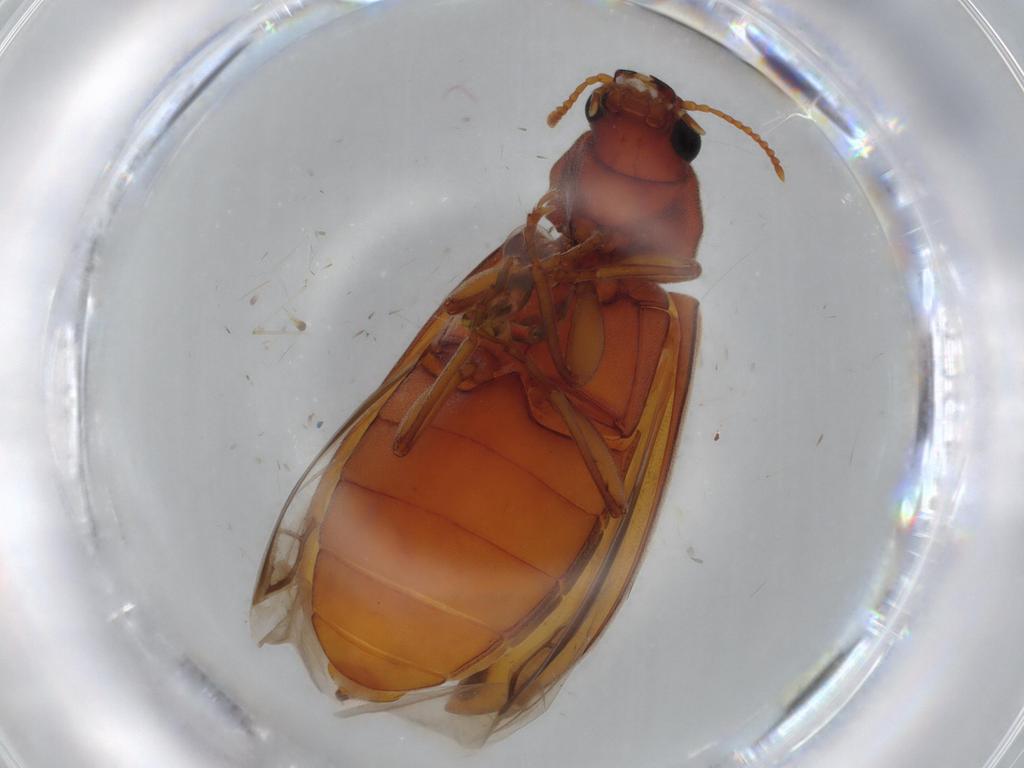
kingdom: Animalia
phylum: Arthropoda
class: Insecta
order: Coleoptera
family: Mycteridae
